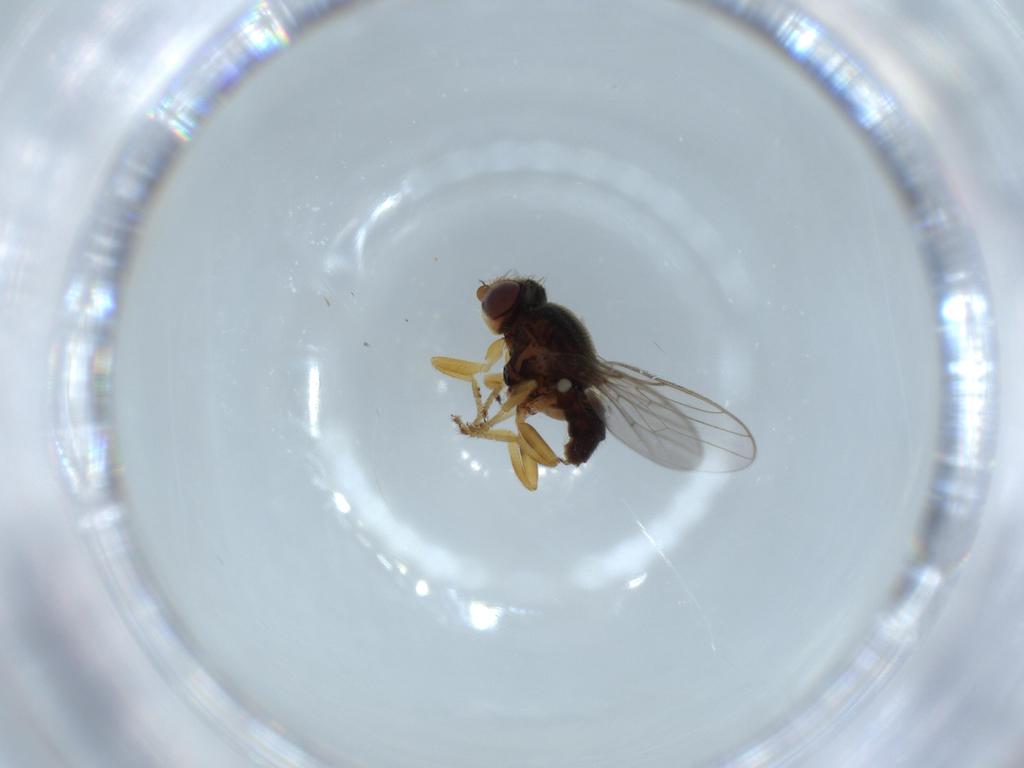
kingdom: Animalia
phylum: Arthropoda
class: Insecta
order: Diptera
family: Chloropidae
